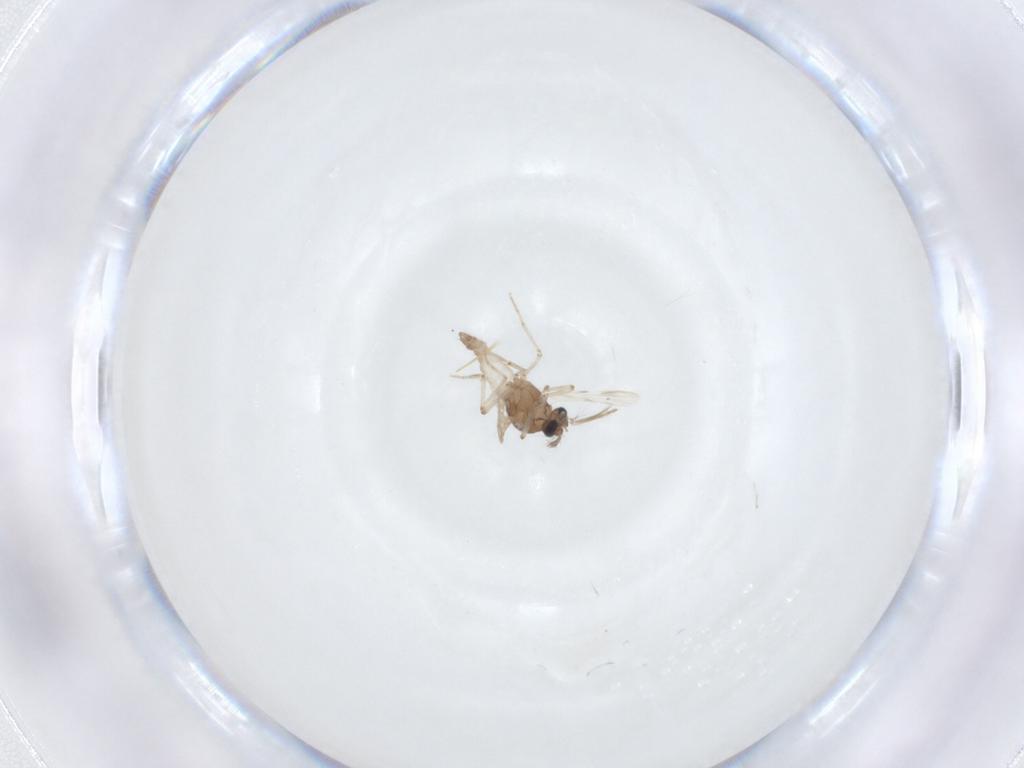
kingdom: Animalia
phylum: Arthropoda
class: Insecta
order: Diptera
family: Ceratopogonidae
